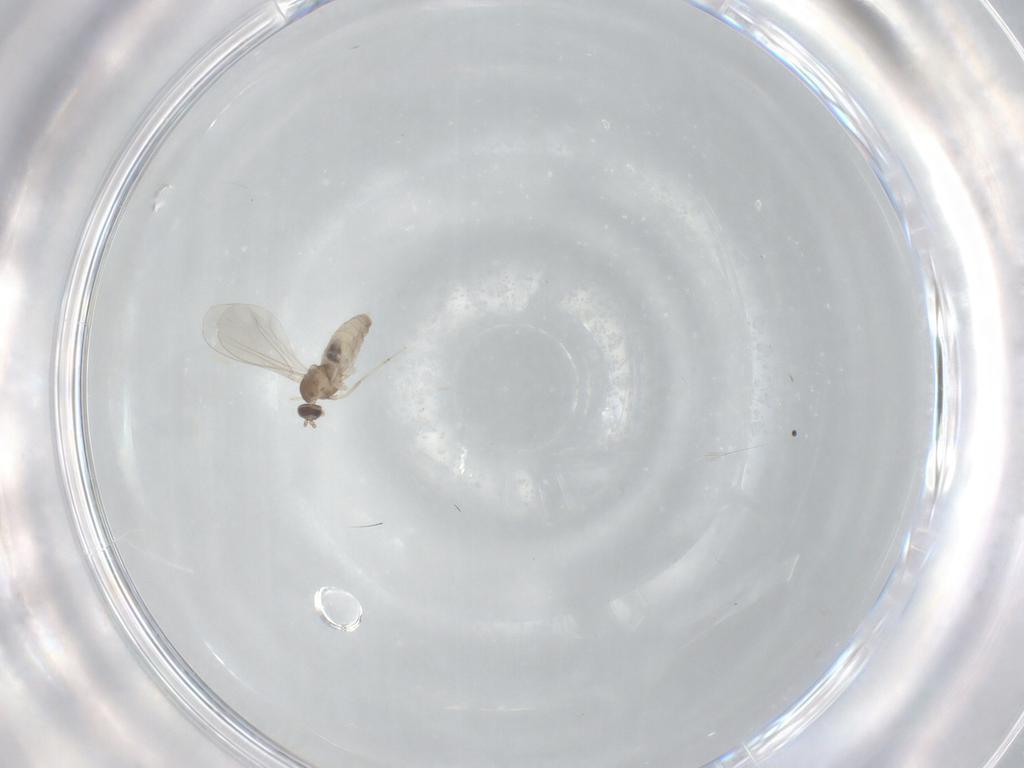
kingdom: Animalia
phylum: Arthropoda
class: Insecta
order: Diptera
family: Cecidomyiidae
